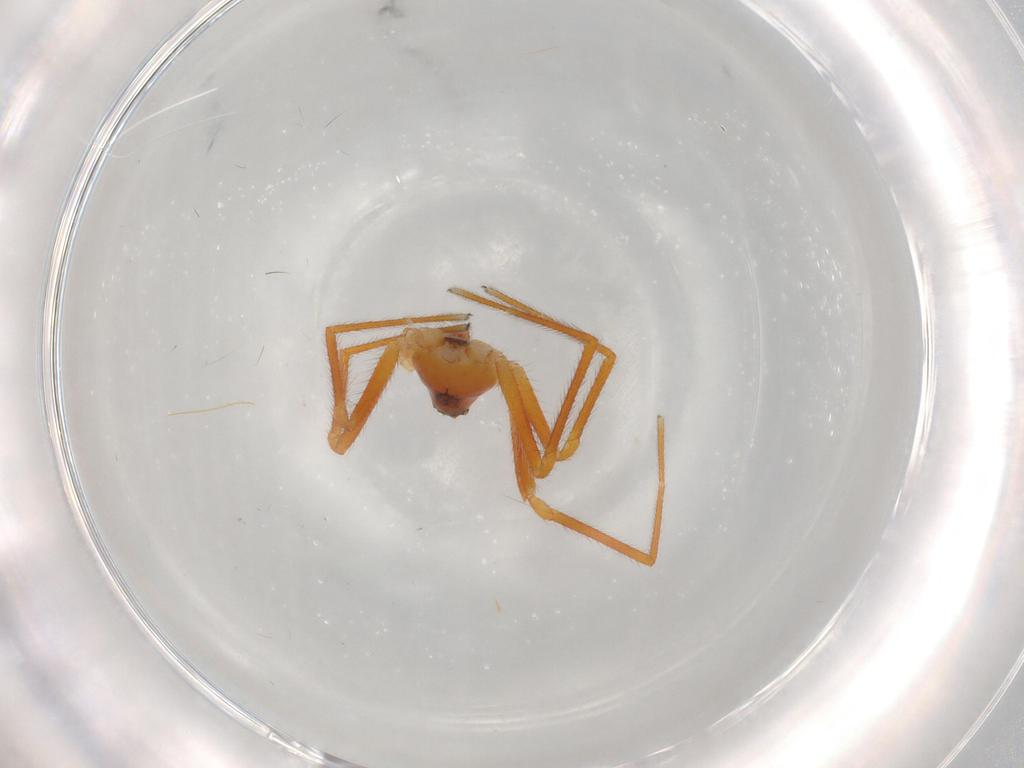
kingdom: Animalia
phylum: Arthropoda
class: Arachnida
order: Araneae
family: Linyphiidae
